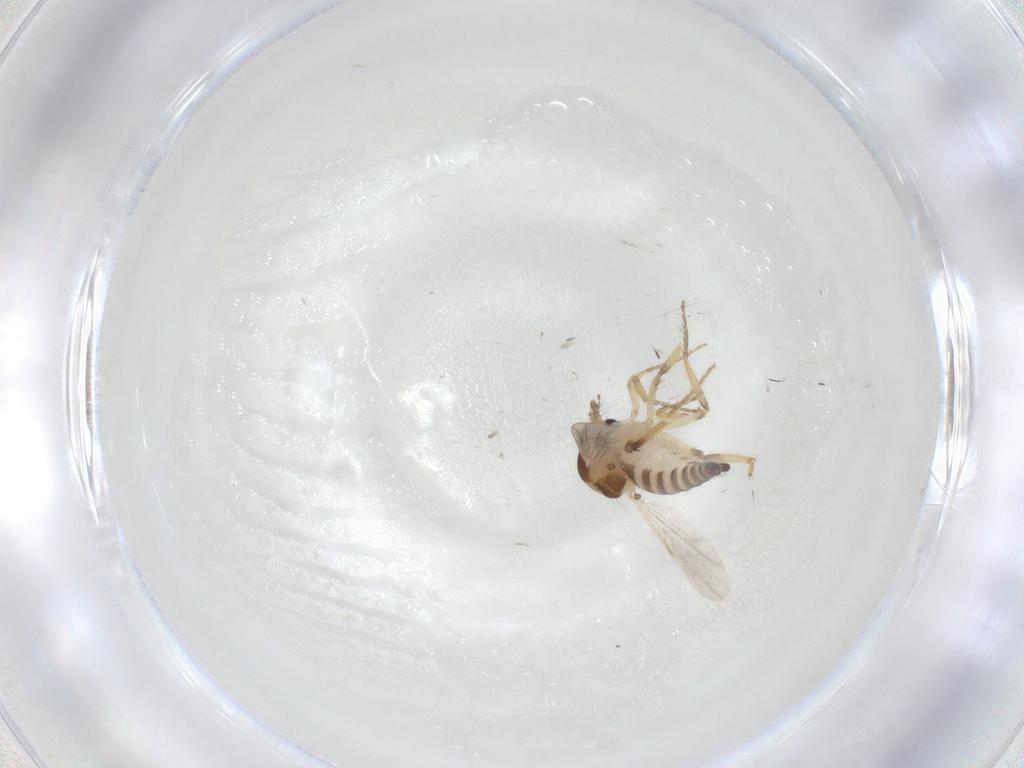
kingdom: Animalia
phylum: Arthropoda
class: Insecta
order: Diptera
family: Ceratopogonidae
